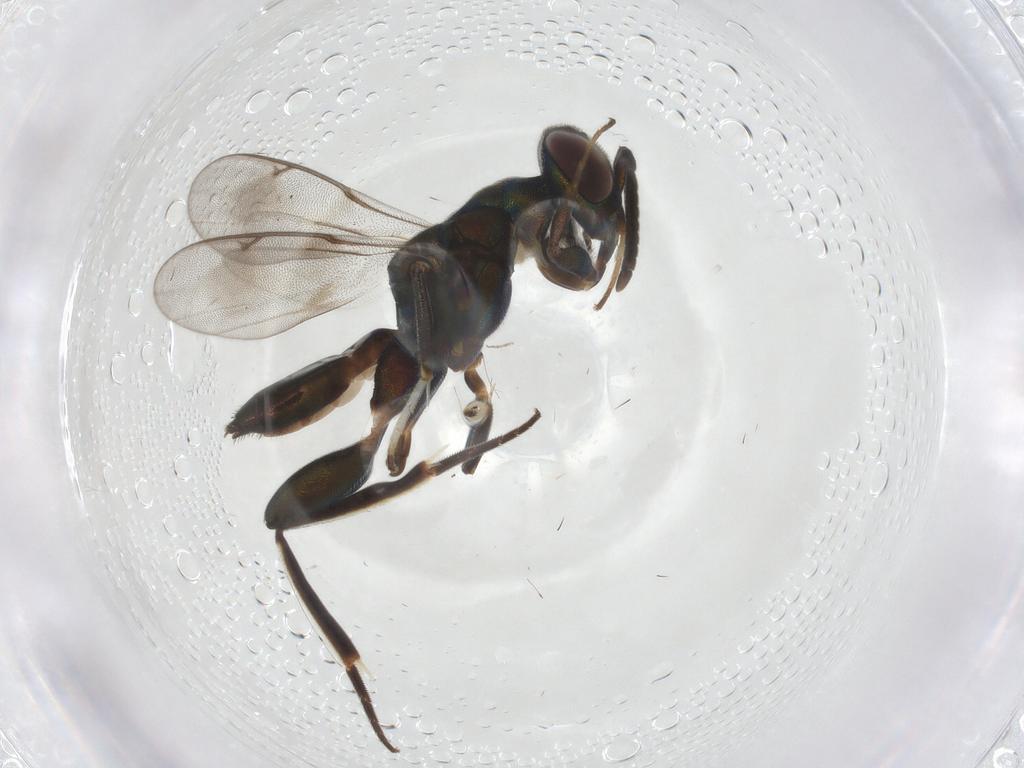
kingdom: Animalia
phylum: Arthropoda
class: Insecta
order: Hymenoptera
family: Eupelmidae
